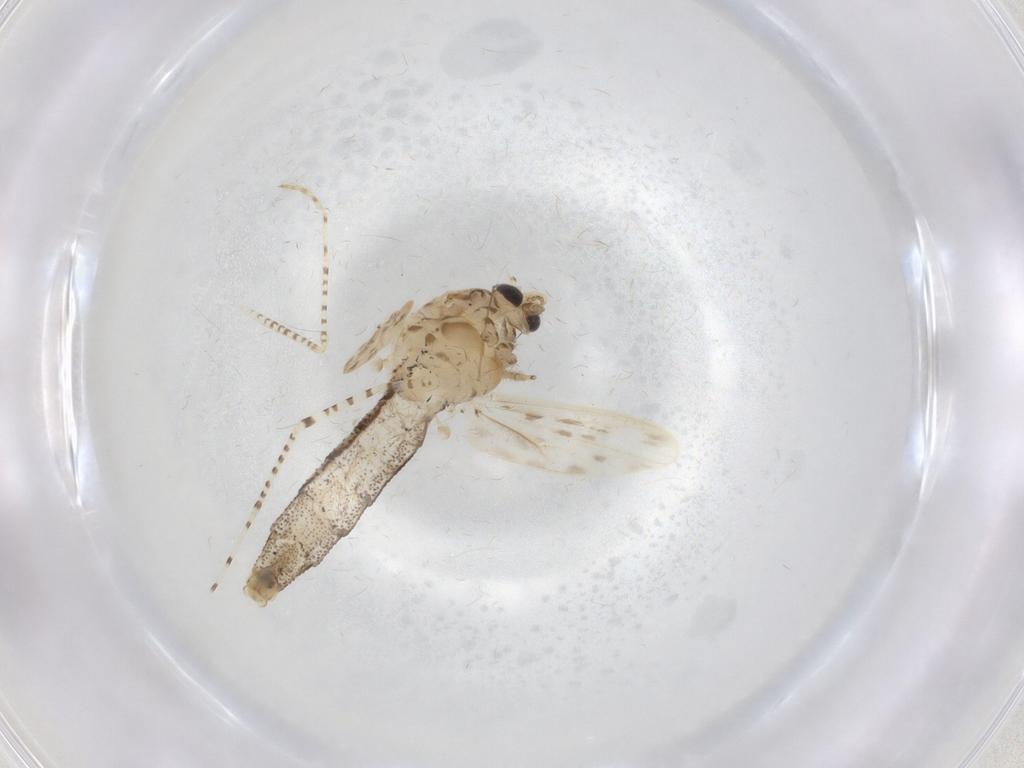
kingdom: Animalia
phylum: Arthropoda
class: Insecta
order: Diptera
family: Chaoboridae
